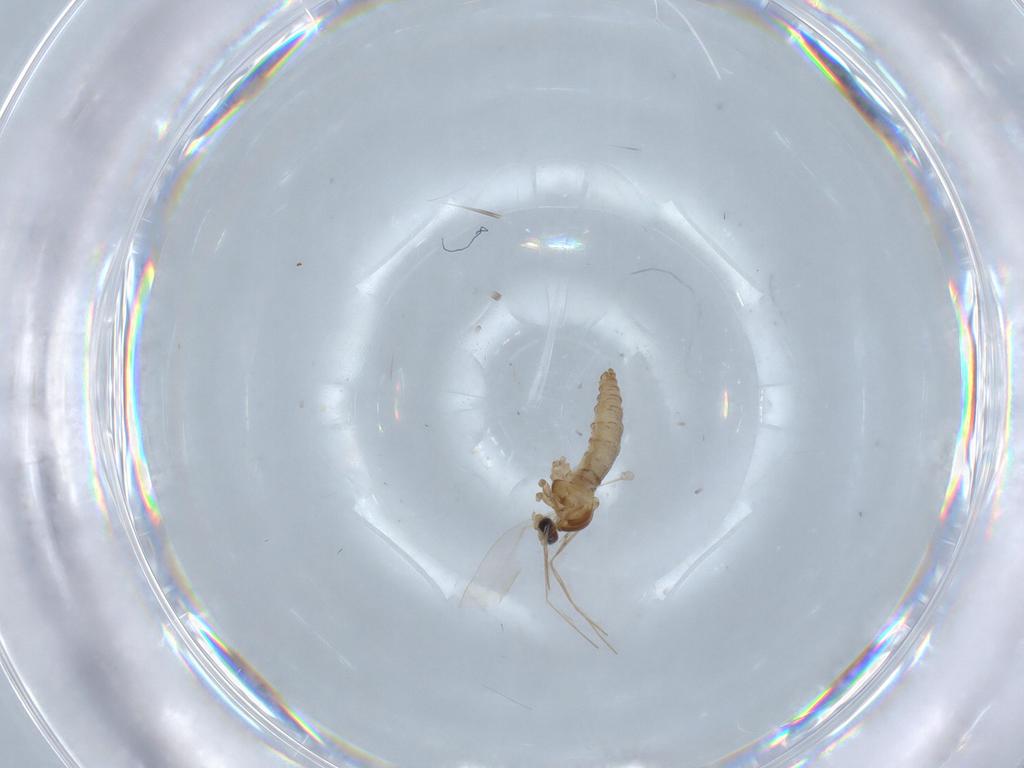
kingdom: Animalia
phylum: Arthropoda
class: Insecta
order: Diptera
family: Cecidomyiidae
